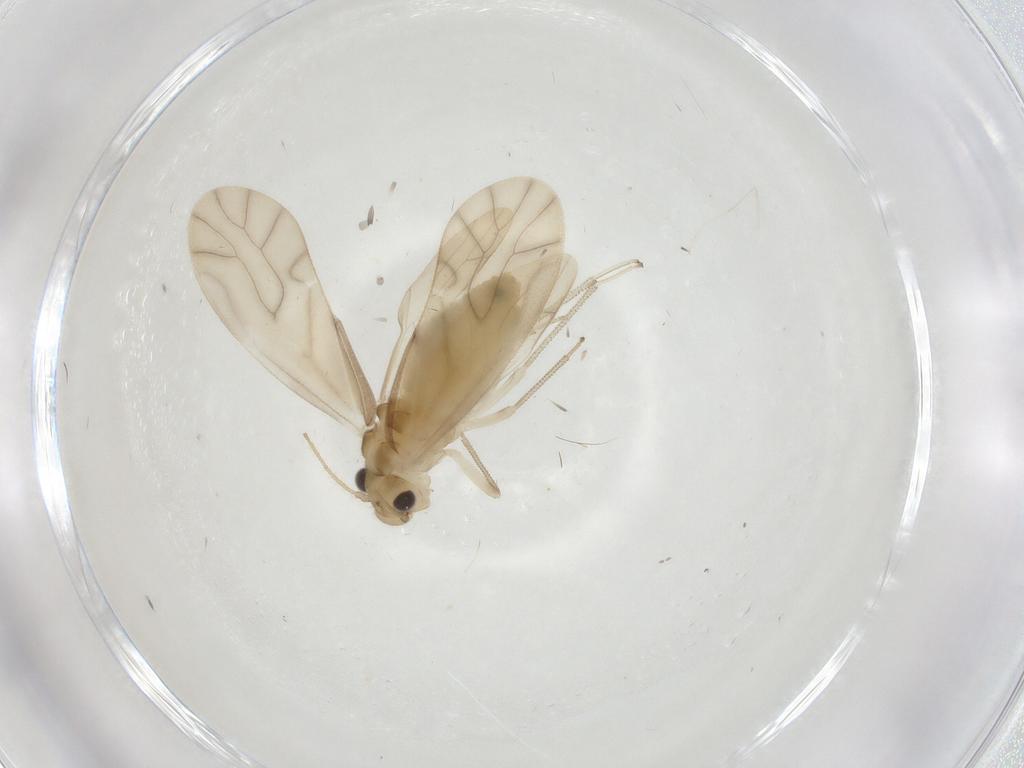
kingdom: Animalia
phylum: Arthropoda
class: Insecta
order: Psocodea
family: Caeciliusidae
